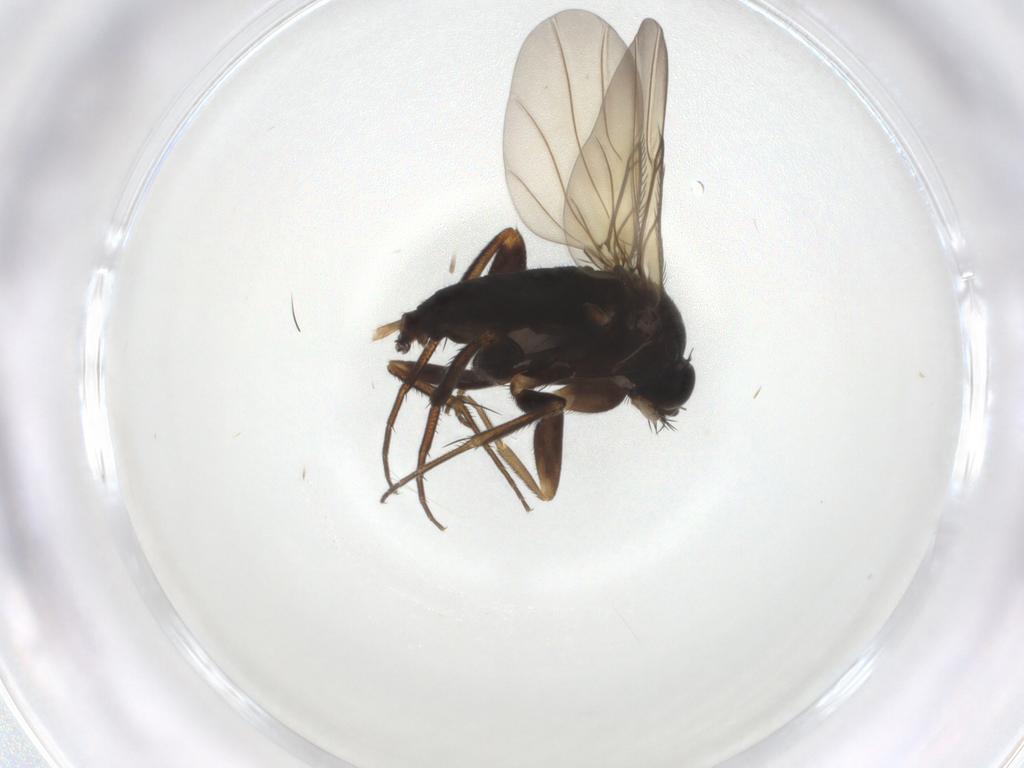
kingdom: Animalia
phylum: Arthropoda
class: Insecta
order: Diptera
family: Phoridae
